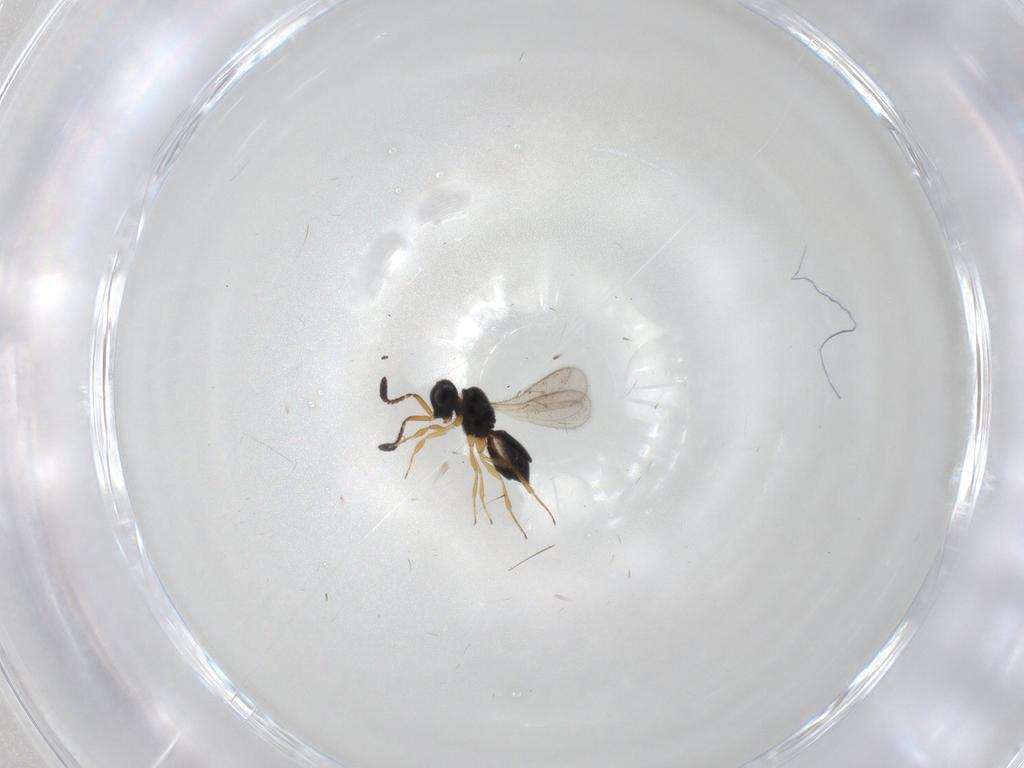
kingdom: Animalia
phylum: Arthropoda
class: Insecta
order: Hymenoptera
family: Scelionidae
